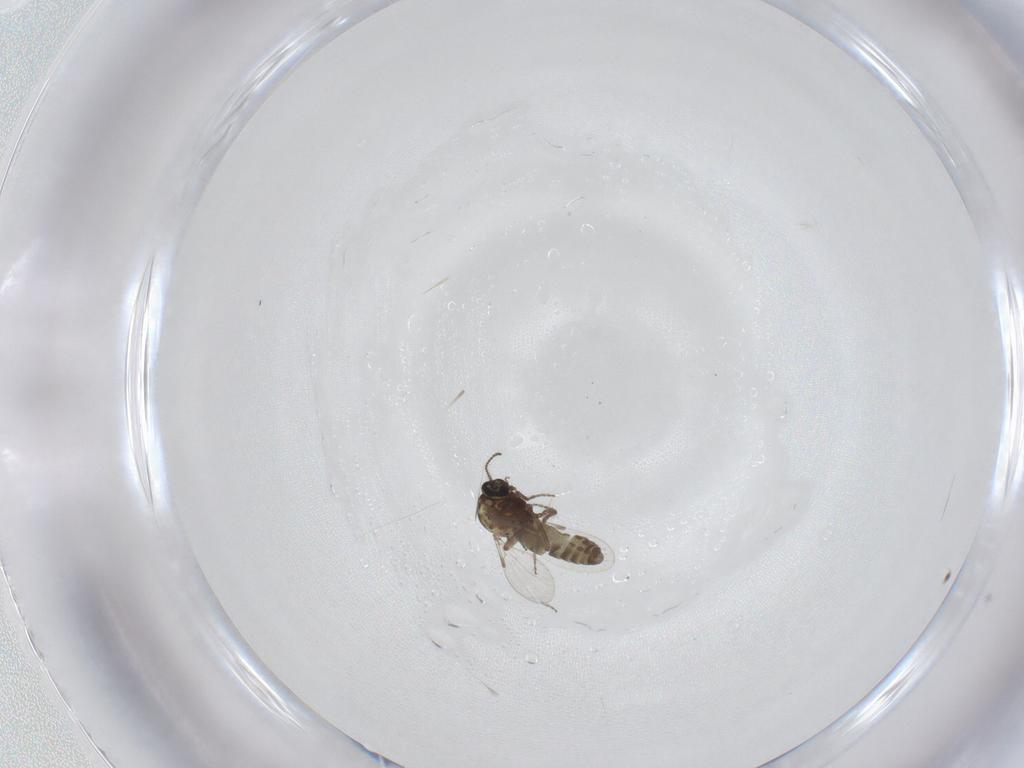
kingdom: Animalia
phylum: Arthropoda
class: Insecta
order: Diptera
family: Ceratopogonidae
